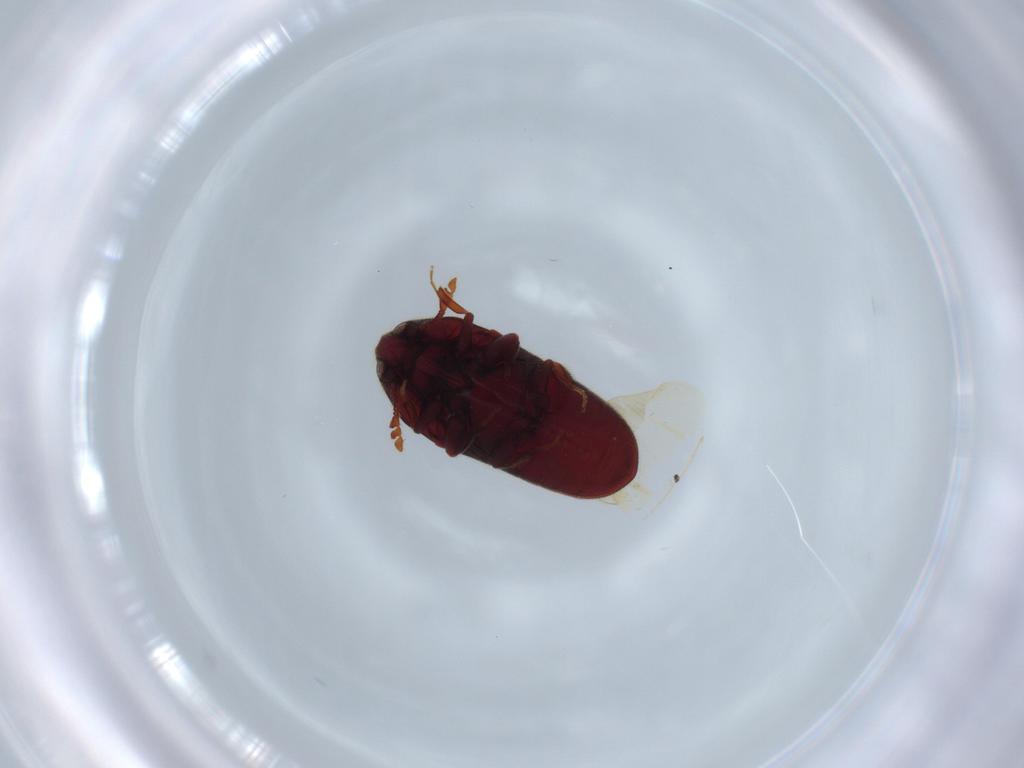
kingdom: Animalia
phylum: Arthropoda
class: Insecta
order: Coleoptera
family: Throscidae
